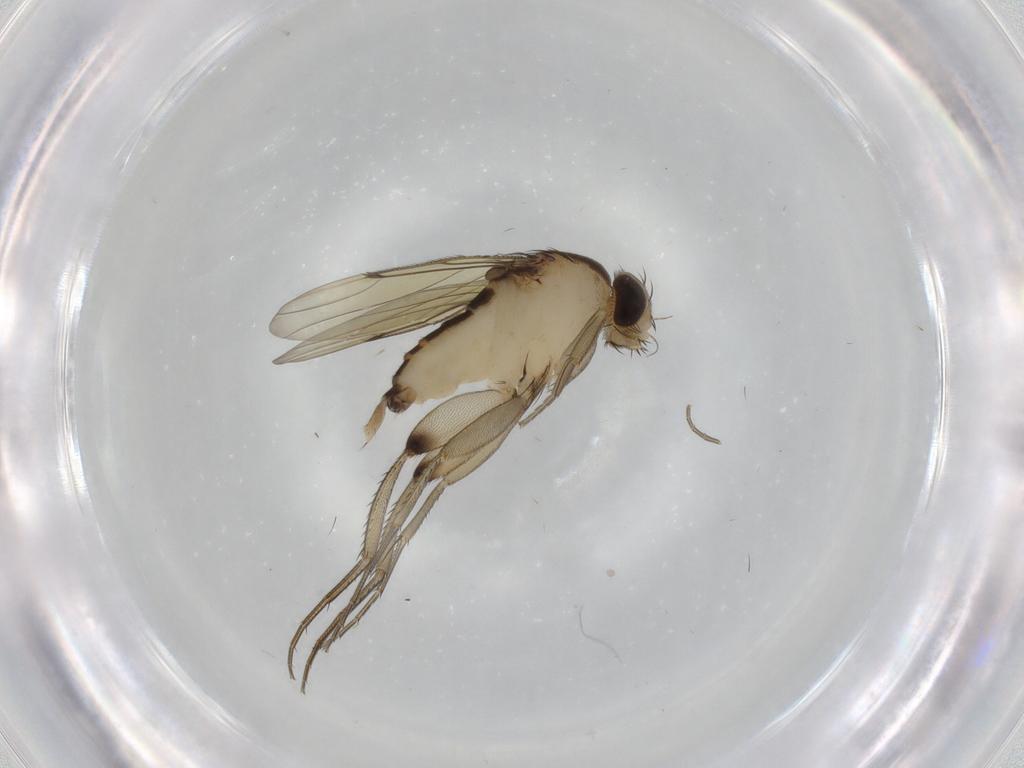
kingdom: Animalia
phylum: Arthropoda
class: Insecta
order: Diptera
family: Phoridae
